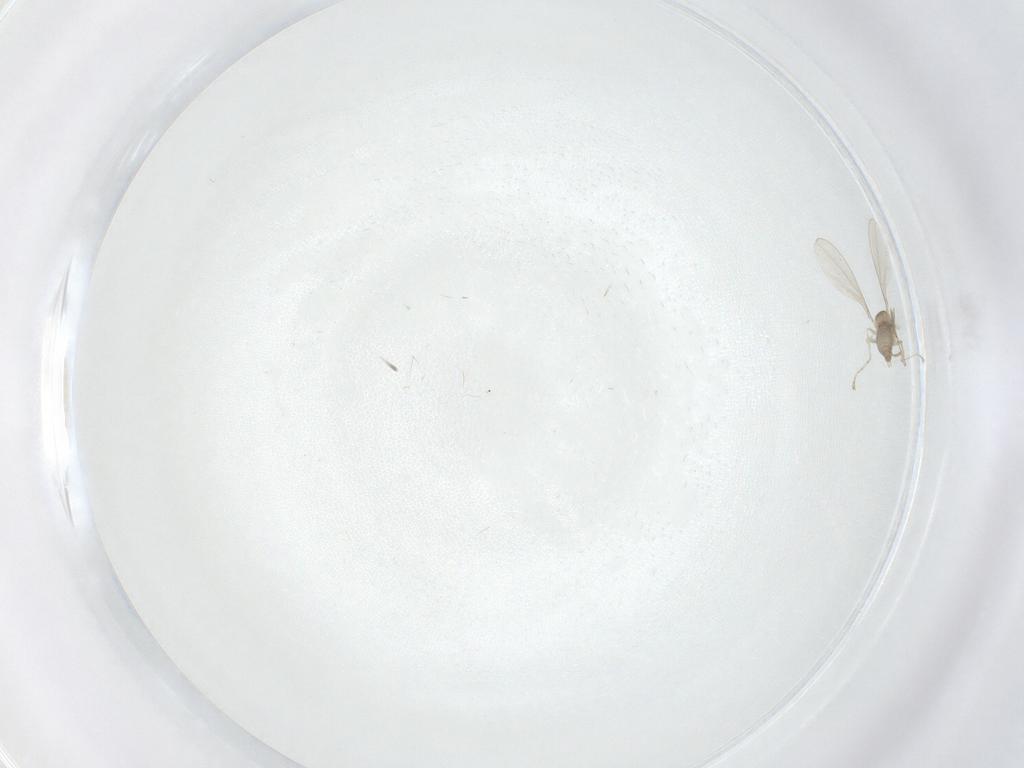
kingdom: Animalia
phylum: Arthropoda
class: Insecta
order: Diptera
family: Cecidomyiidae
